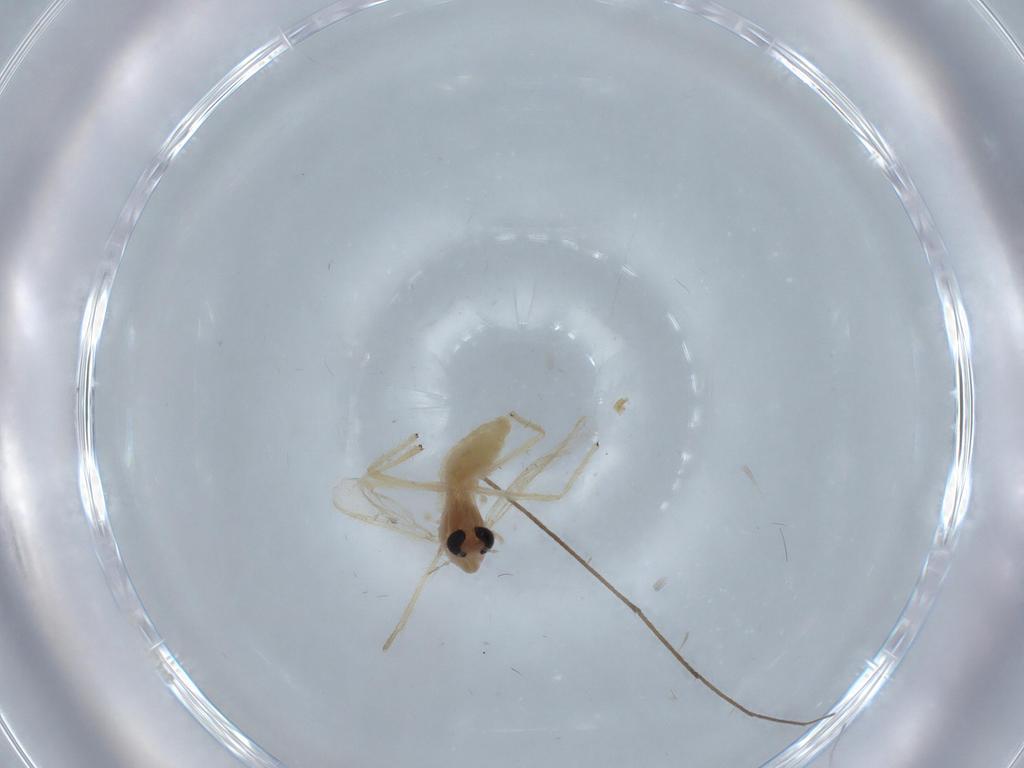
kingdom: Animalia
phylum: Arthropoda
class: Insecta
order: Diptera
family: Chironomidae
